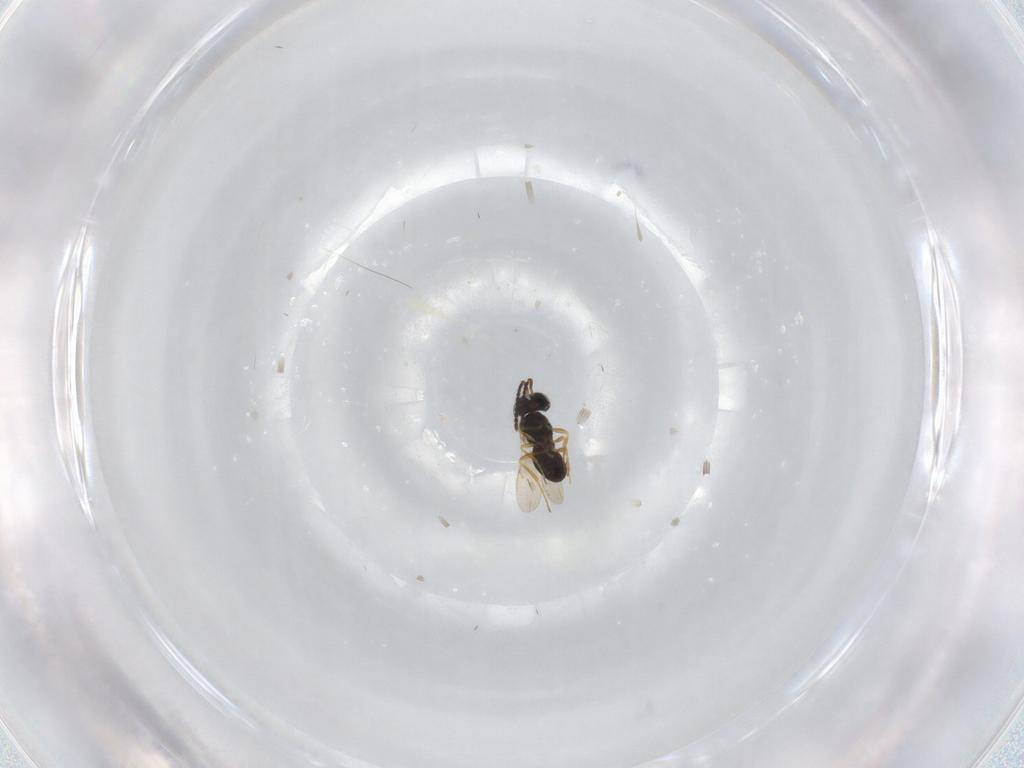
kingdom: Animalia
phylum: Arthropoda
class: Insecta
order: Hymenoptera
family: Scelionidae
